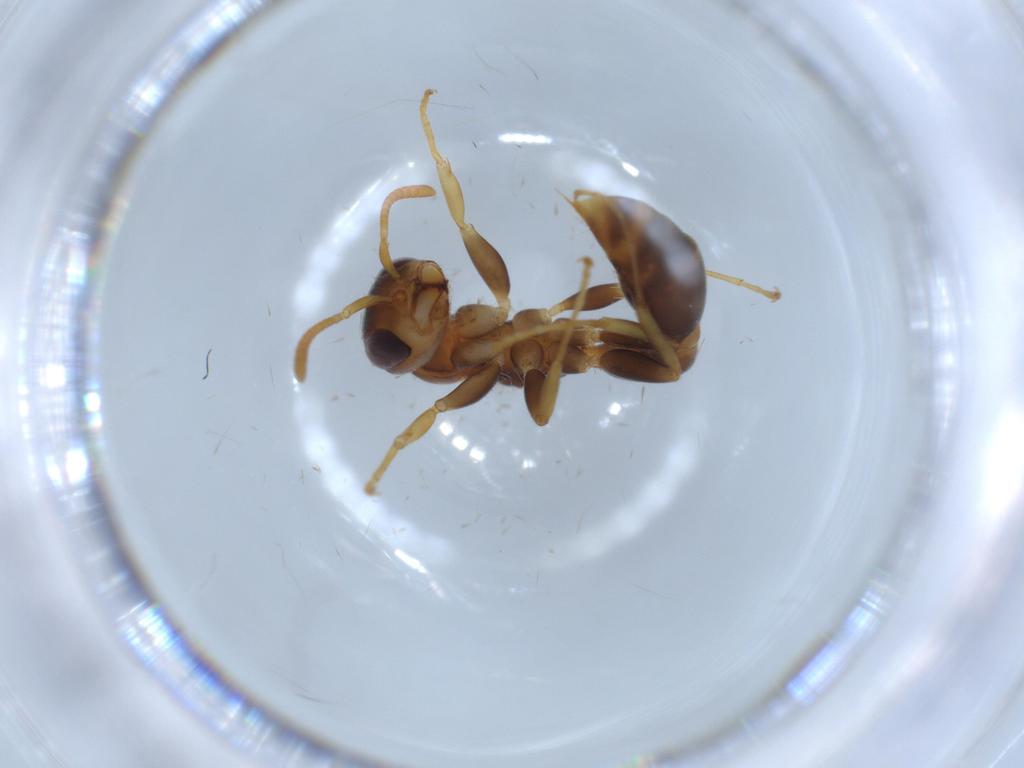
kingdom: Animalia
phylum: Arthropoda
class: Insecta
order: Hymenoptera
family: Formicidae
